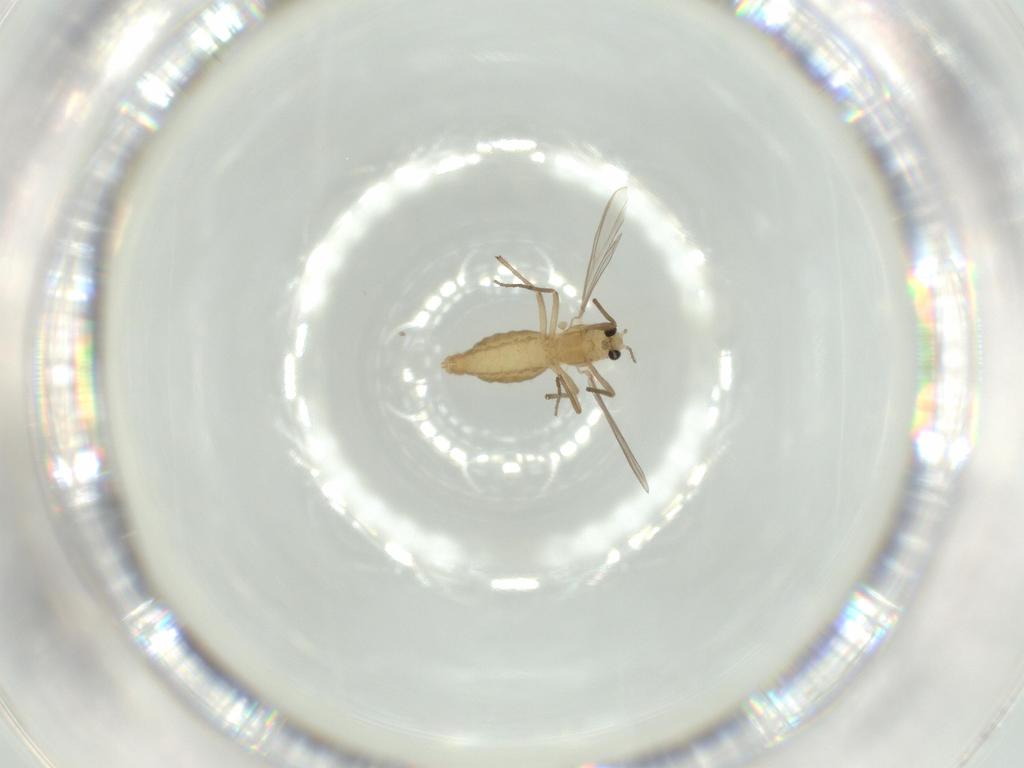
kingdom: Animalia
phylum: Arthropoda
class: Insecta
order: Diptera
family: Chironomidae
